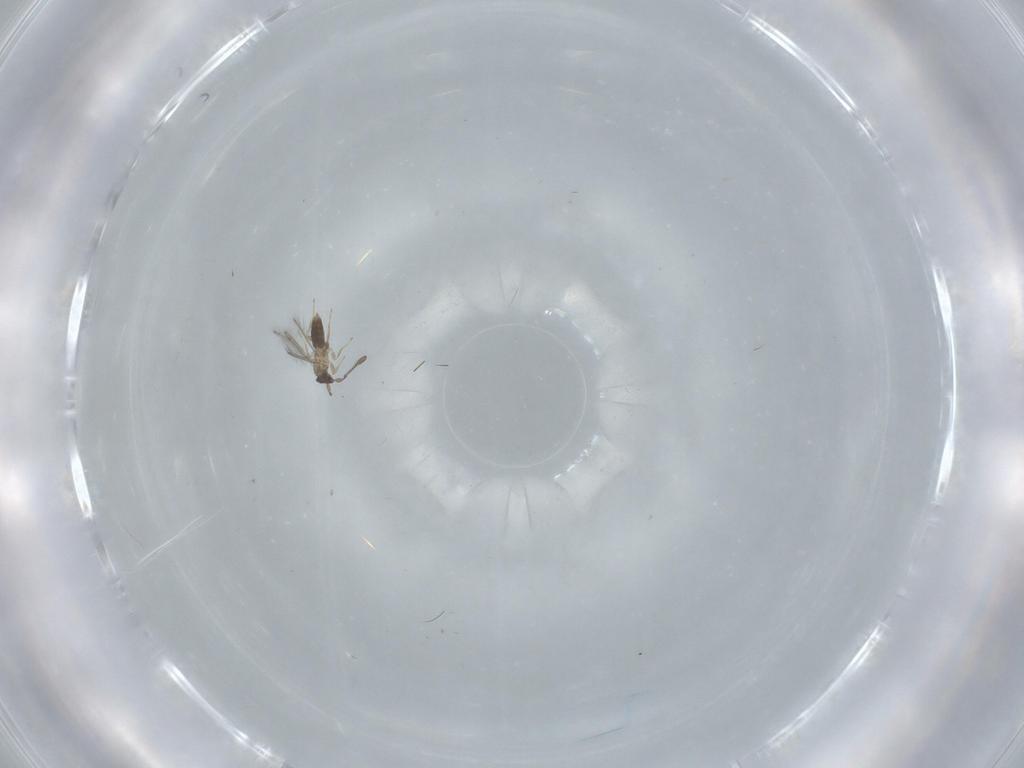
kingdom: Animalia
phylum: Arthropoda
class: Insecta
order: Hymenoptera
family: Mymaridae
